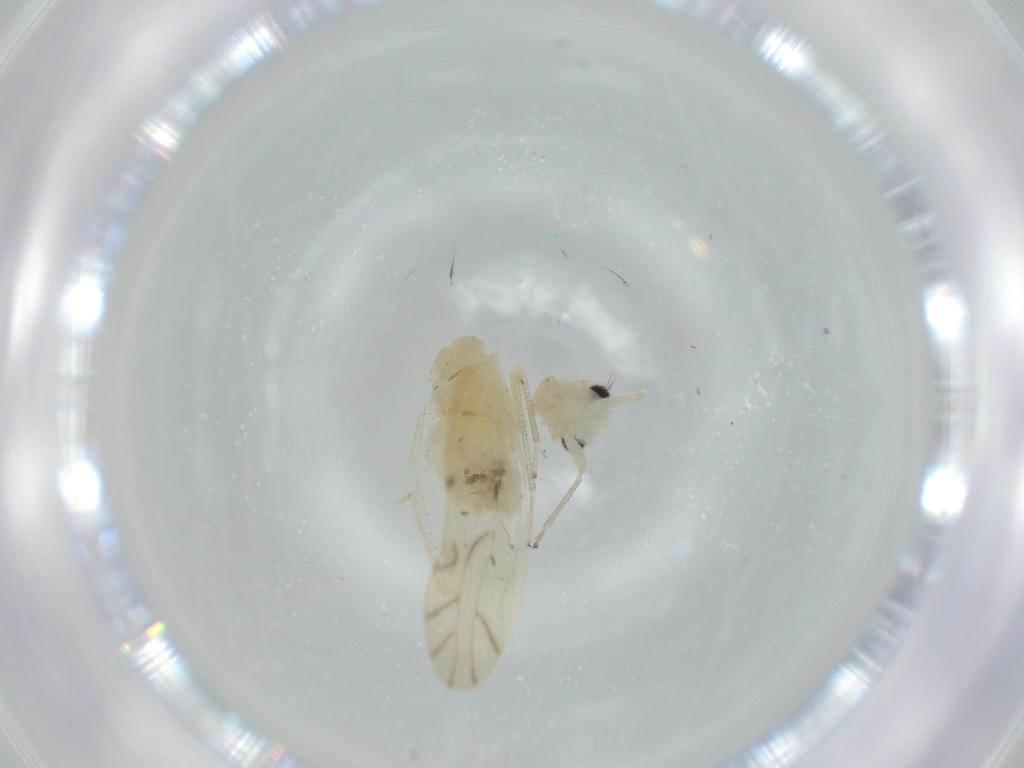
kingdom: Animalia
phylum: Arthropoda
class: Insecta
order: Psocodea
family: Caeciliusidae
